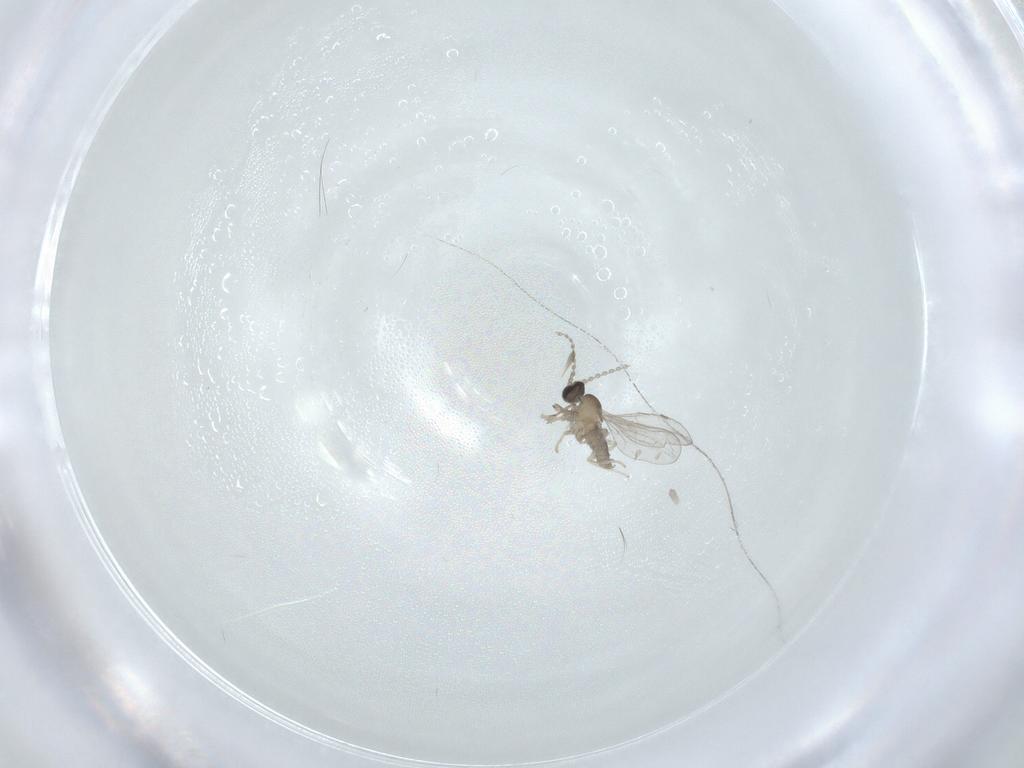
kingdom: Animalia
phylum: Arthropoda
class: Insecta
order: Diptera
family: Cecidomyiidae
